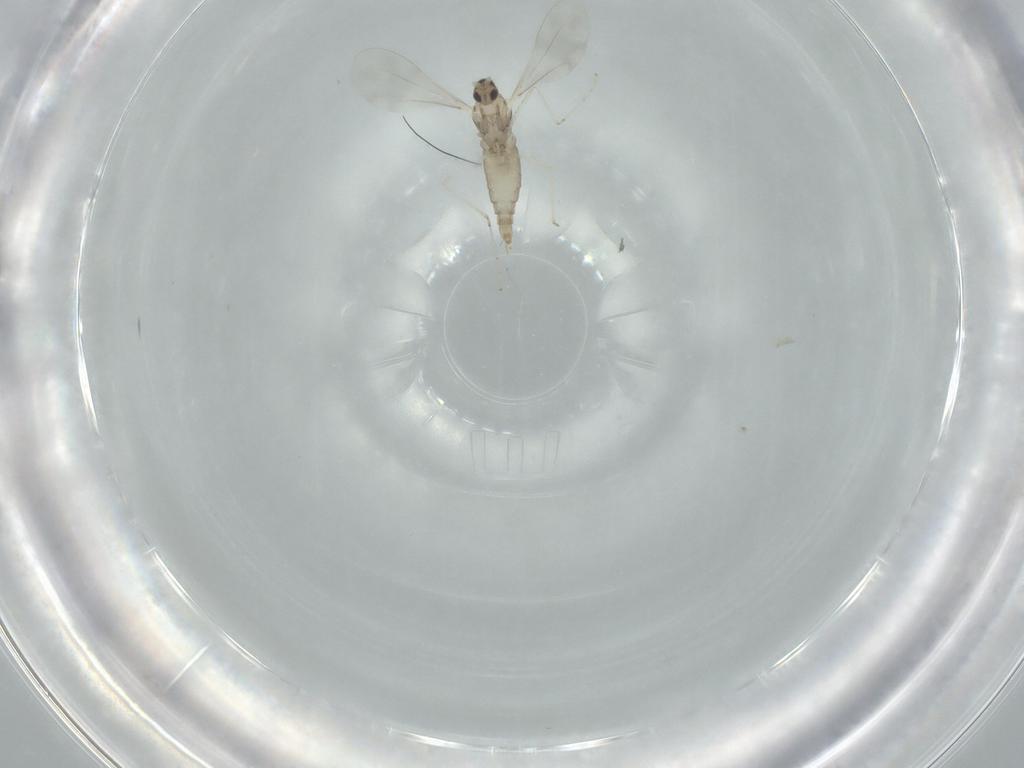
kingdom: Animalia
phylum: Arthropoda
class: Insecta
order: Diptera
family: Cecidomyiidae
